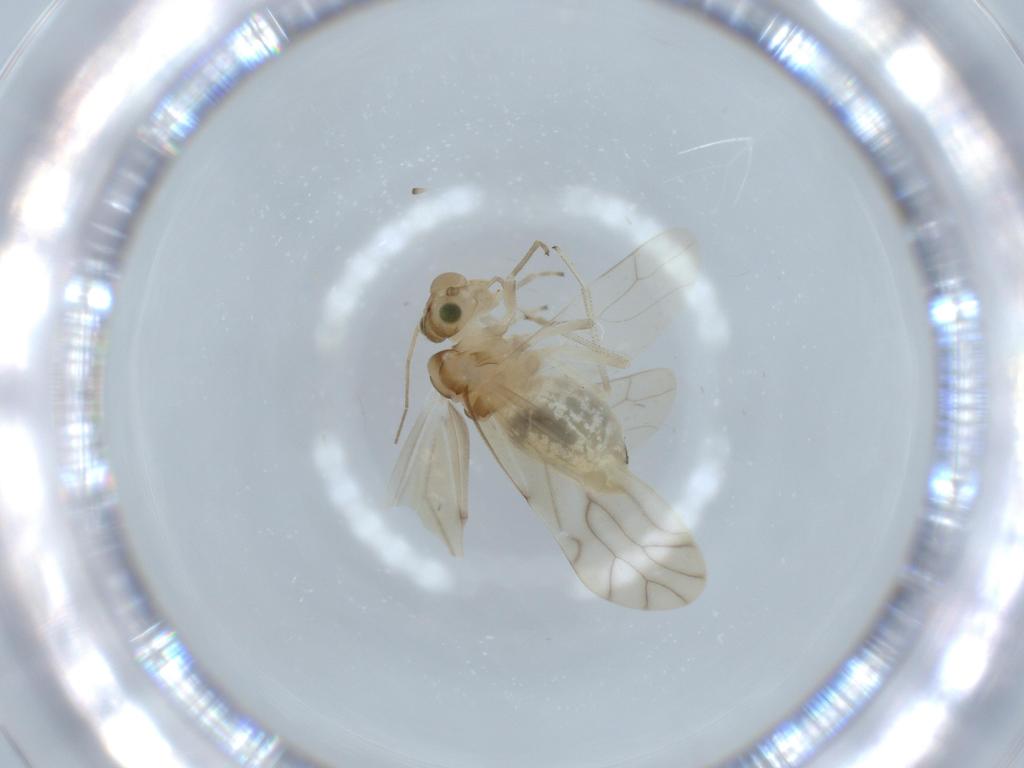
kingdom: Animalia
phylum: Arthropoda
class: Insecta
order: Psocodea
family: Caeciliusidae
